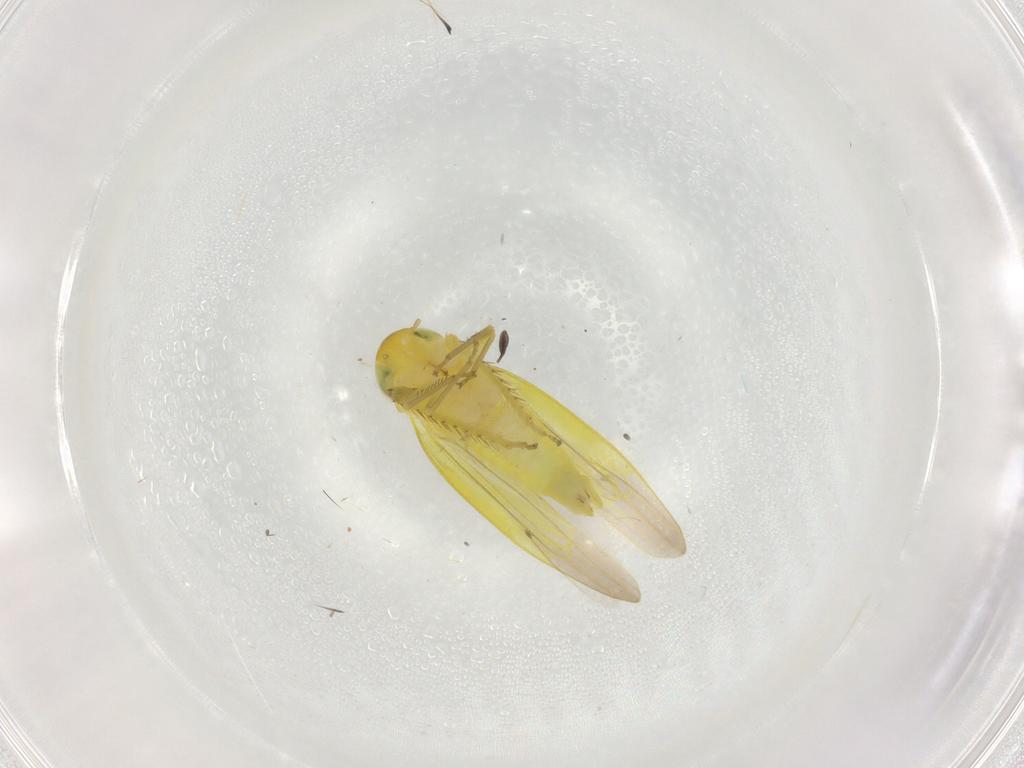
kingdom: Animalia
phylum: Arthropoda
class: Insecta
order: Hemiptera
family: Cicadellidae
